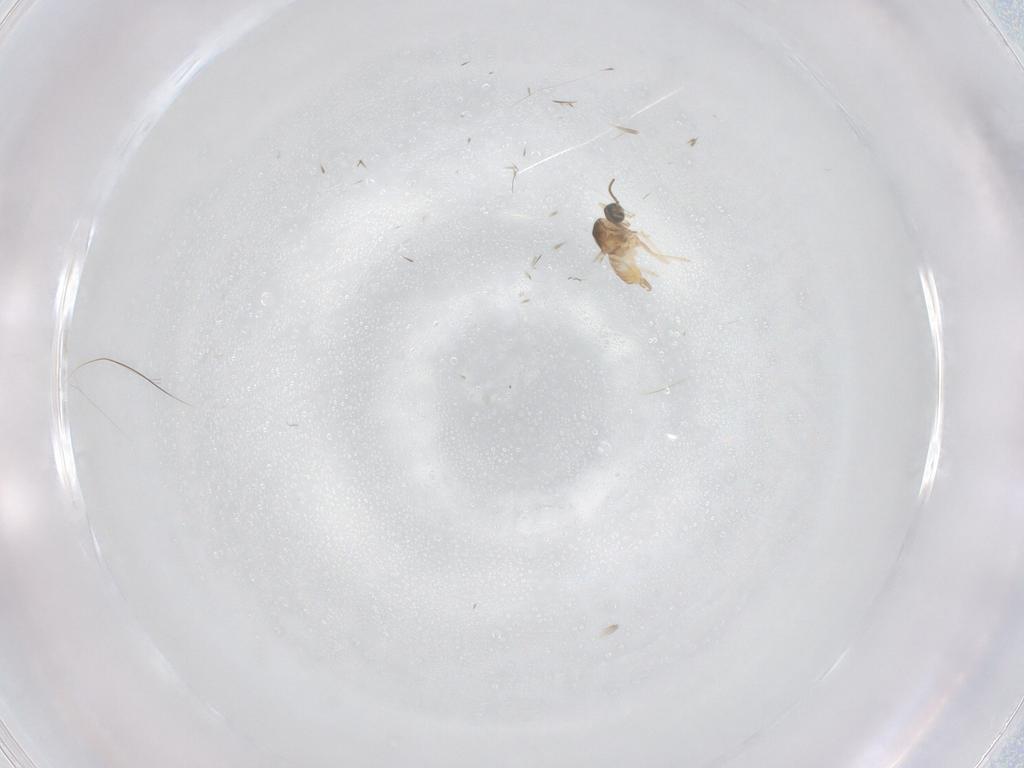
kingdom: Animalia
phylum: Arthropoda
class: Insecta
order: Diptera
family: Cecidomyiidae
